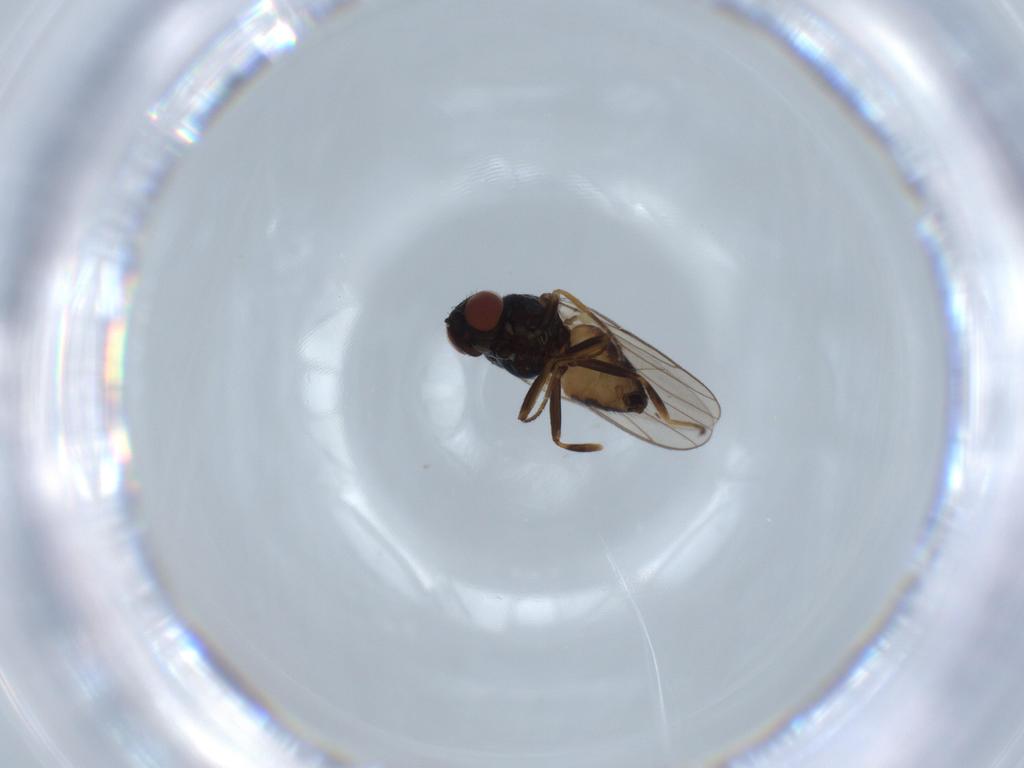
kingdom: Animalia
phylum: Arthropoda
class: Insecta
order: Diptera
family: Chloropidae
